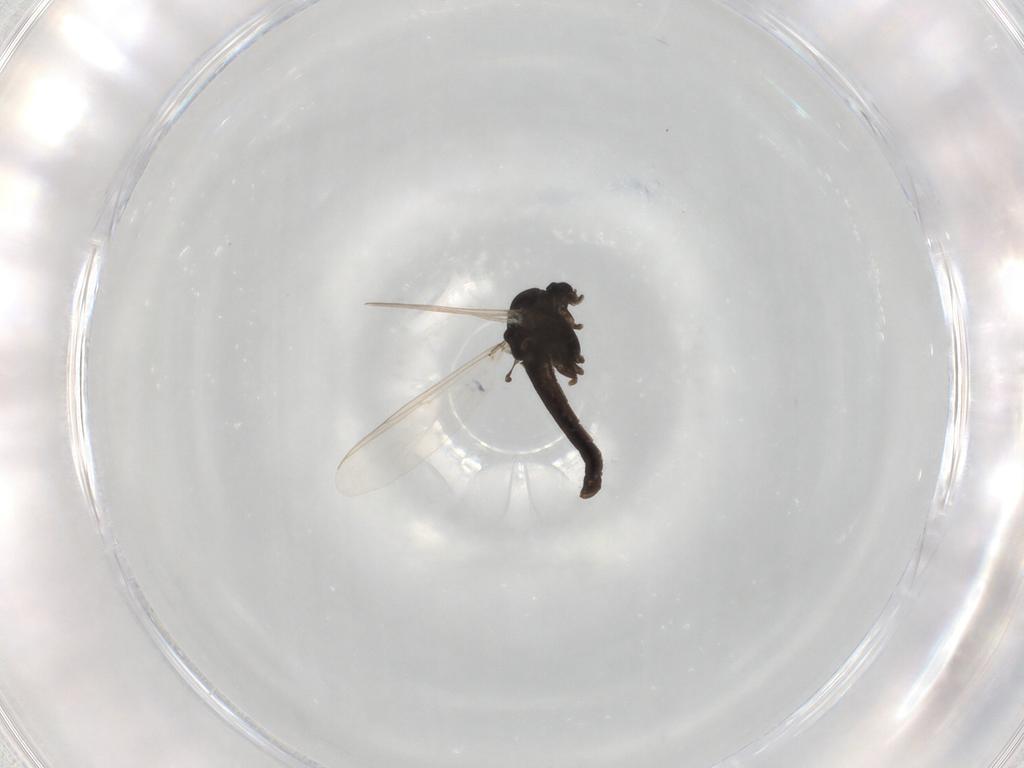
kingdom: Animalia
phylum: Arthropoda
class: Insecta
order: Diptera
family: Chironomidae
